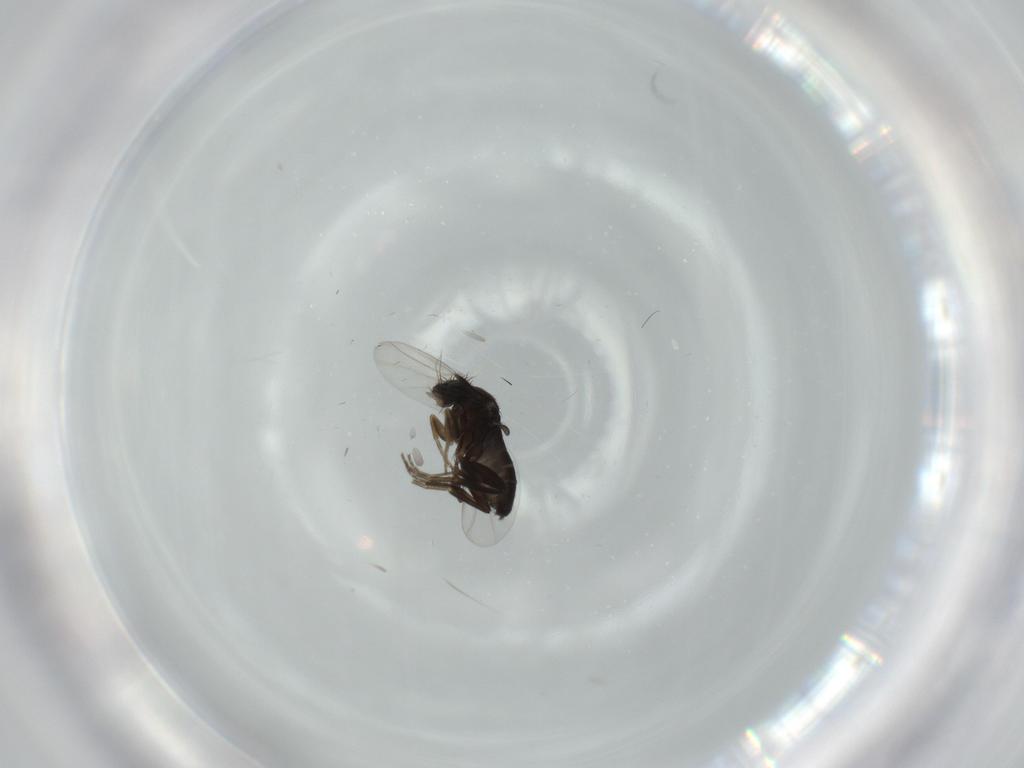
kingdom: Animalia
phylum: Arthropoda
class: Insecta
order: Diptera
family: Phoridae
